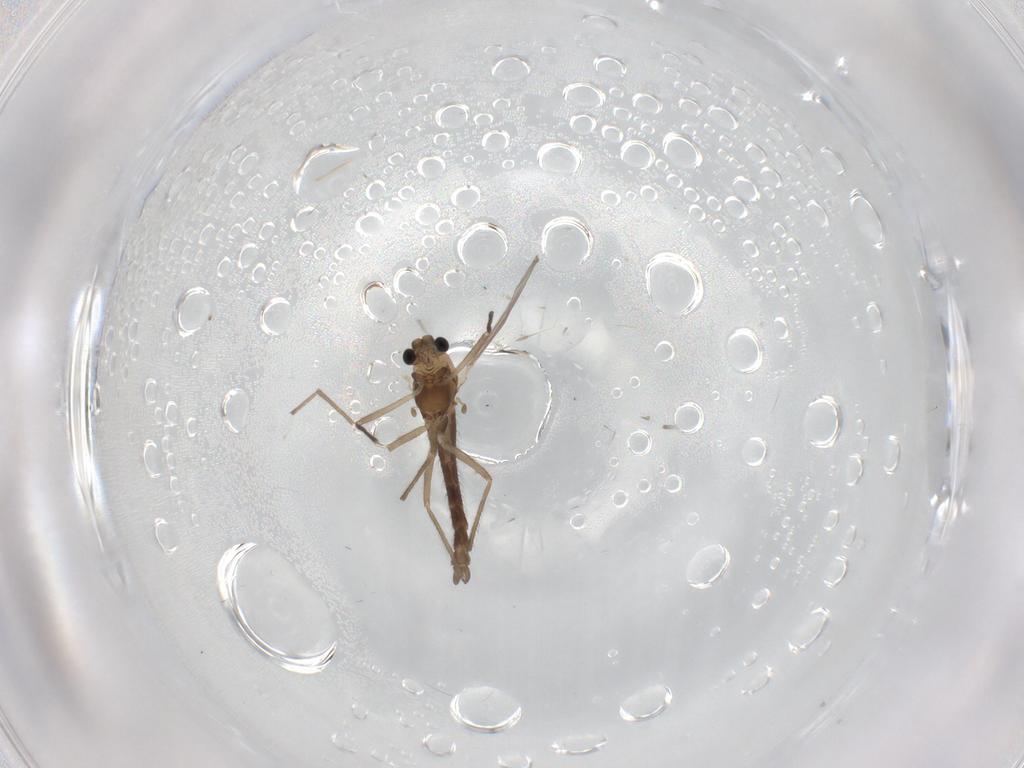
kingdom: Animalia
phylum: Arthropoda
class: Insecta
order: Diptera
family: Chironomidae
